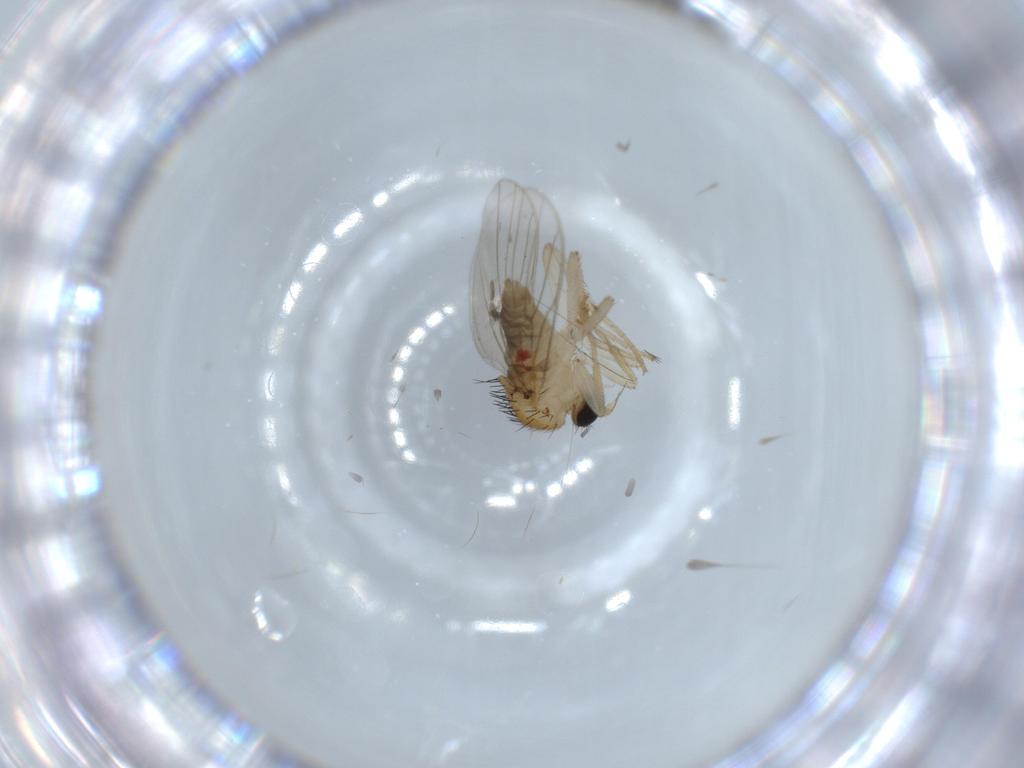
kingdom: Animalia
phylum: Arthropoda
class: Insecta
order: Diptera
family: Hybotidae
